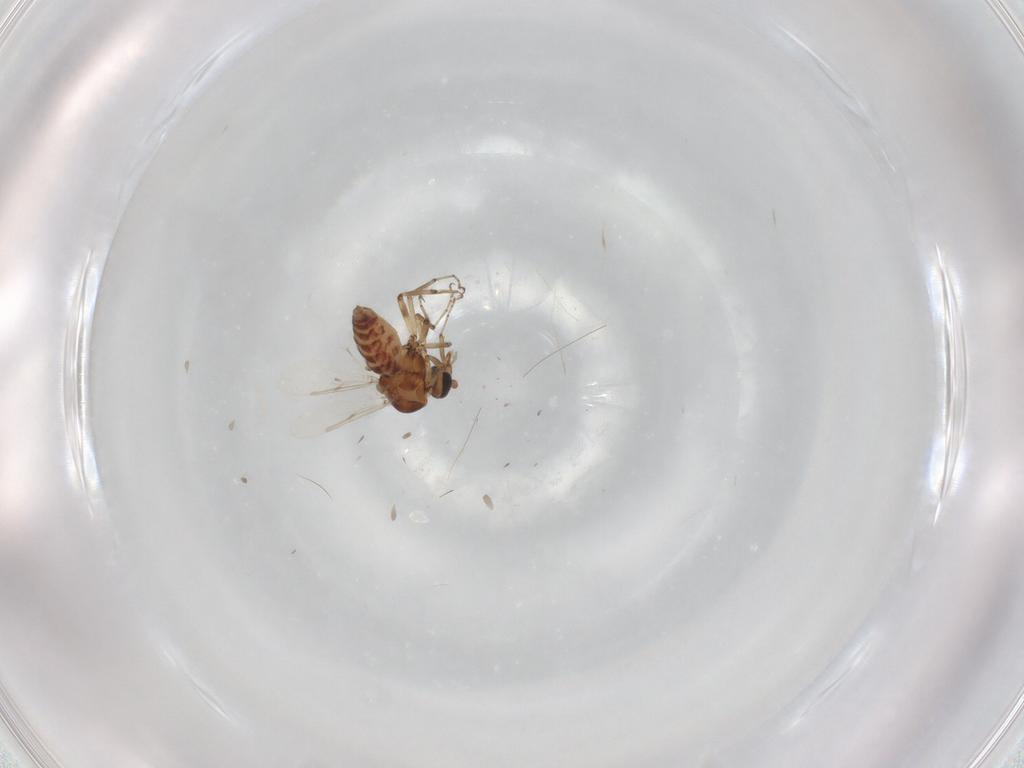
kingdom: Animalia
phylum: Arthropoda
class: Insecta
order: Diptera
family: Ceratopogonidae
